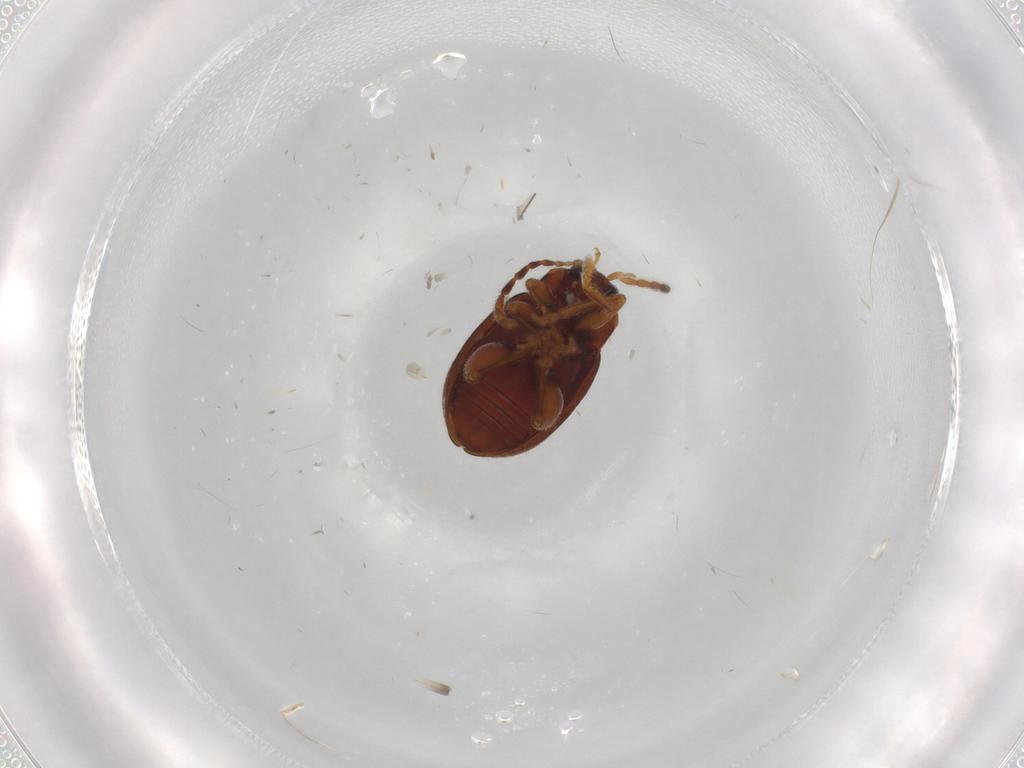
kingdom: Animalia
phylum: Arthropoda
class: Insecta
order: Coleoptera
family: Chrysomelidae
